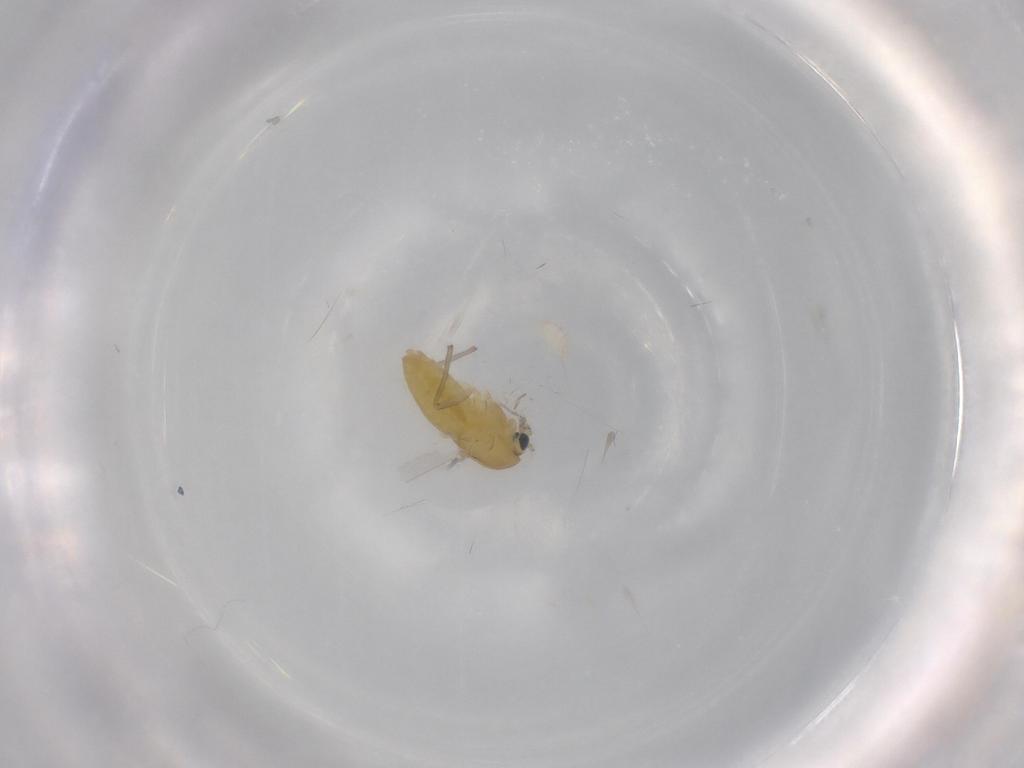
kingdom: Animalia
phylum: Arthropoda
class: Insecta
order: Diptera
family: Chironomidae
